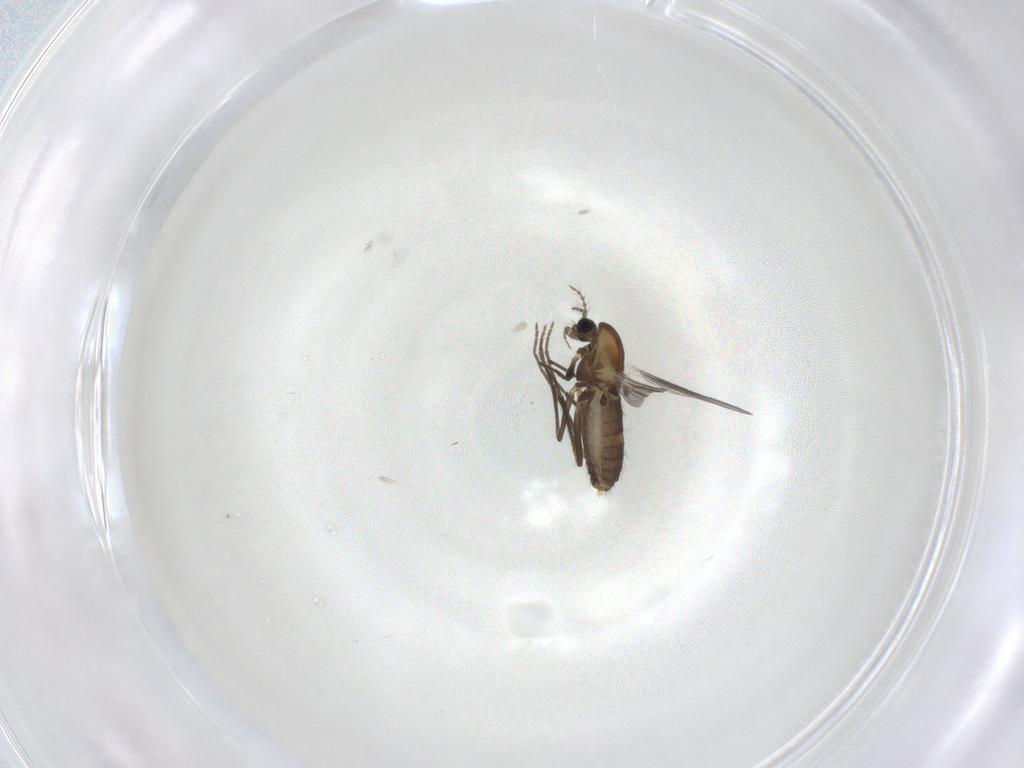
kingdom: Animalia
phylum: Arthropoda
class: Insecta
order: Diptera
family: Chironomidae
